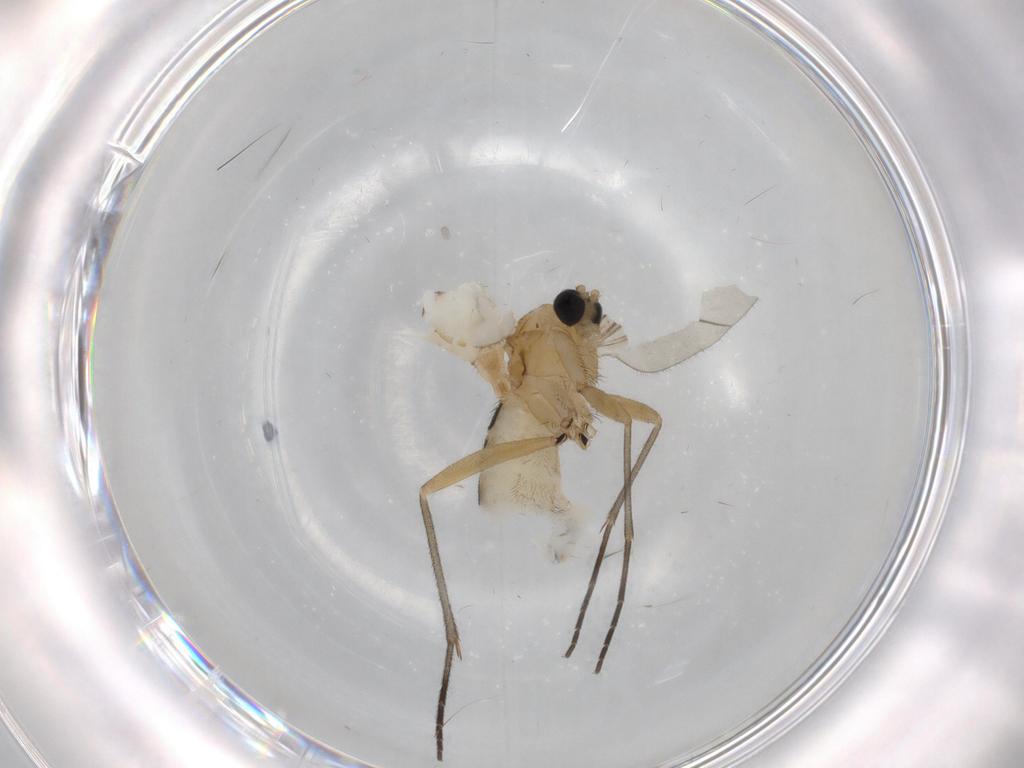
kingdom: Animalia
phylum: Arthropoda
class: Insecta
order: Diptera
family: Sciaridae
